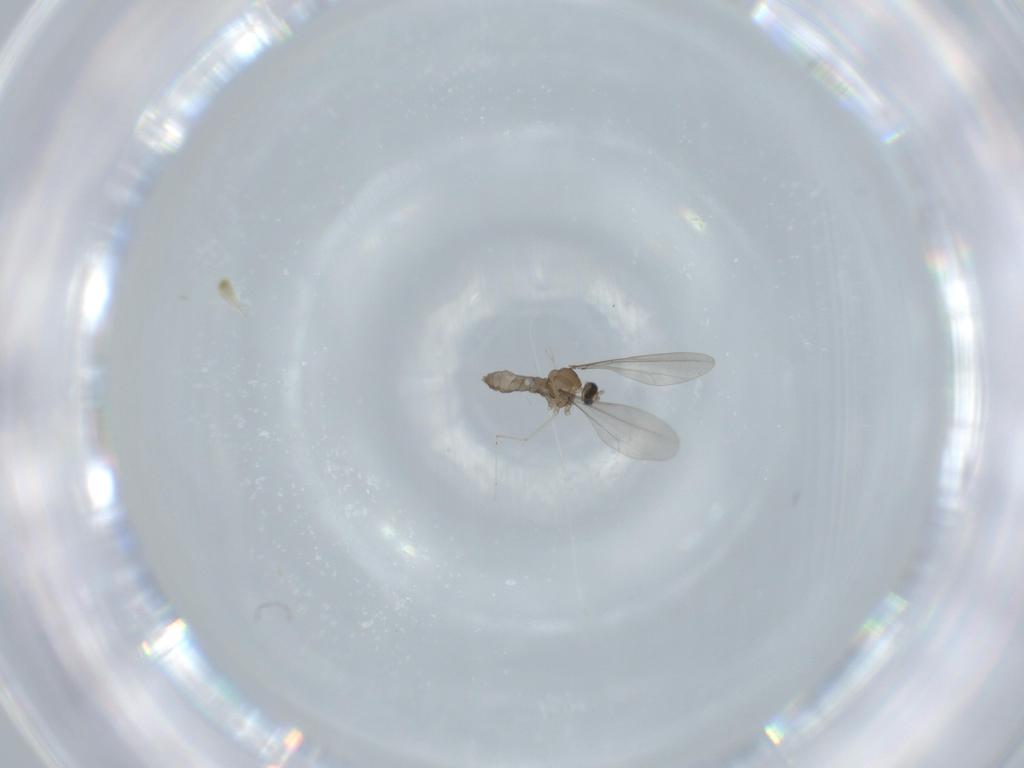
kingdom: Animalia
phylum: Arthropoda
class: Insecta
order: Diptera
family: Cecidomyiidae
